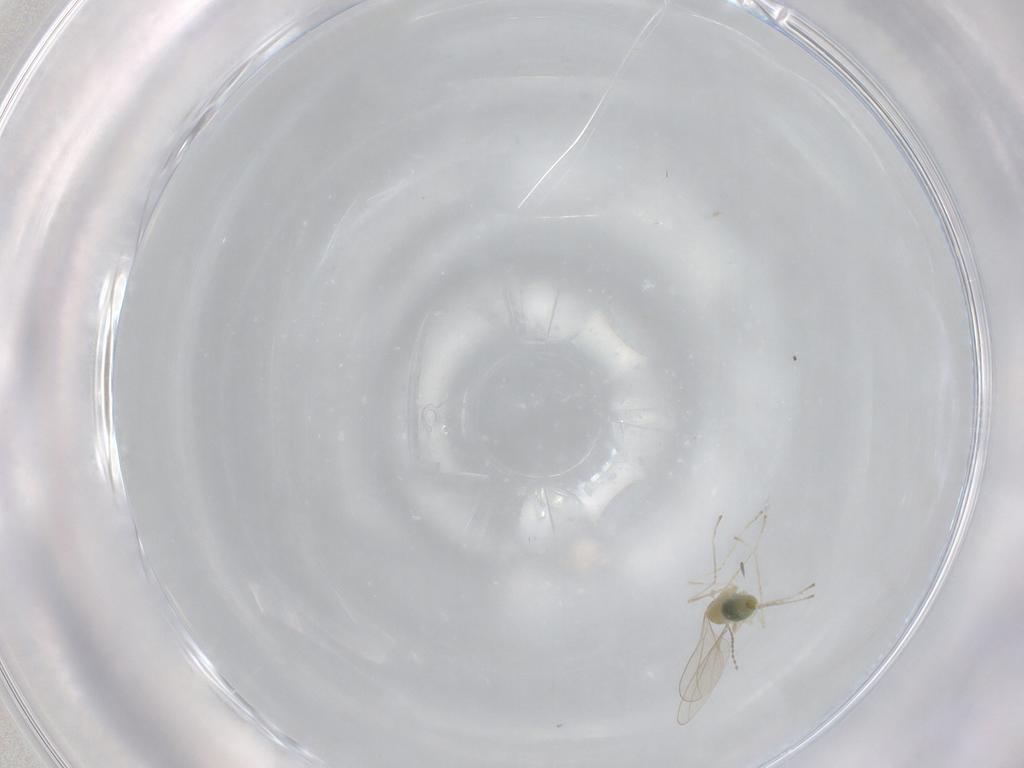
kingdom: Animalia
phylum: Arthropoda
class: Insecta
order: Diptera
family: Cecidomyiidae
